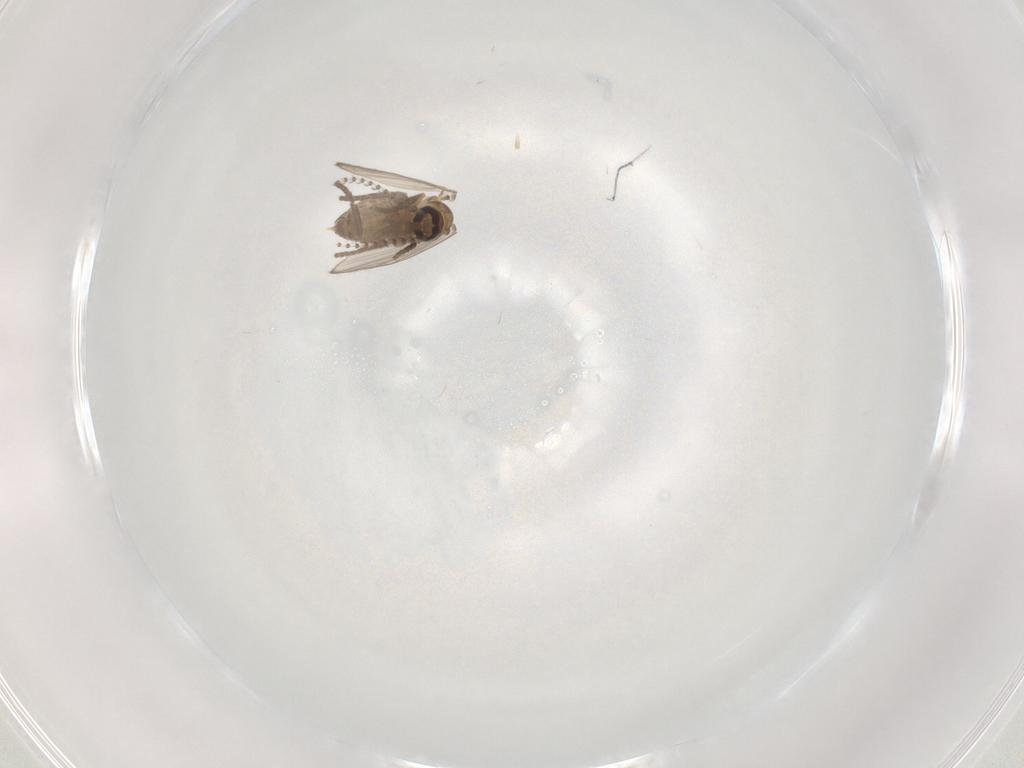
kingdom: Animalia
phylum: Arthropoda
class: Insecta
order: Diptera
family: Psychodidae
